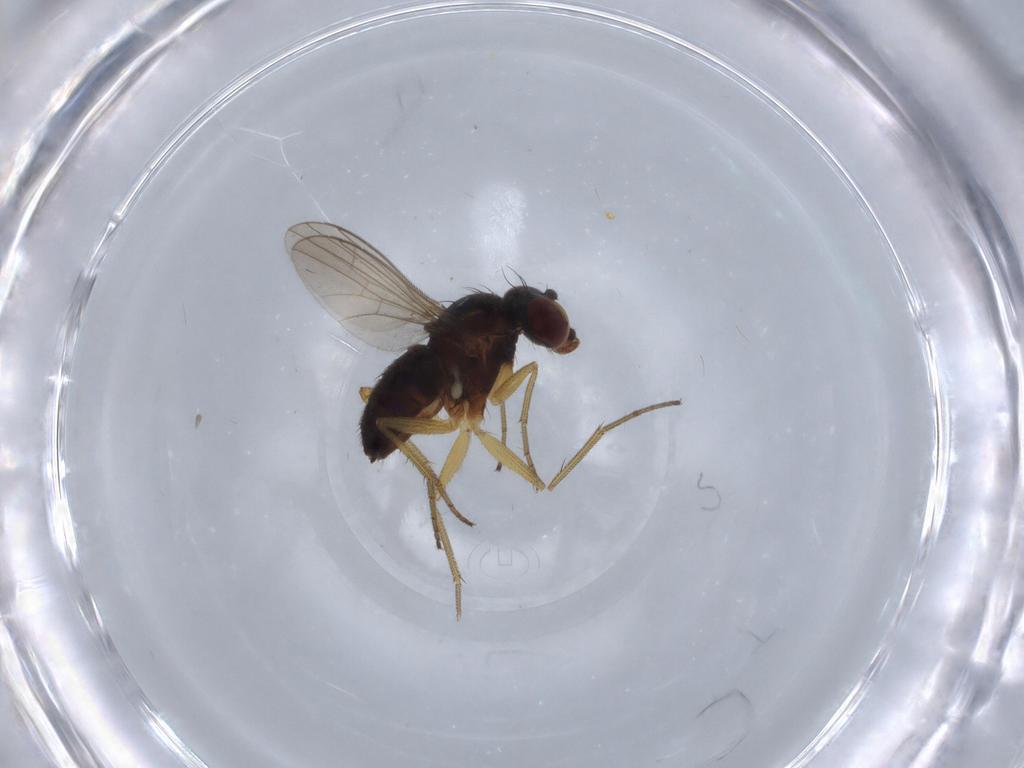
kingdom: Animalia
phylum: Arthropoda
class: Insecta
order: Diptera
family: Dolichopodidae
